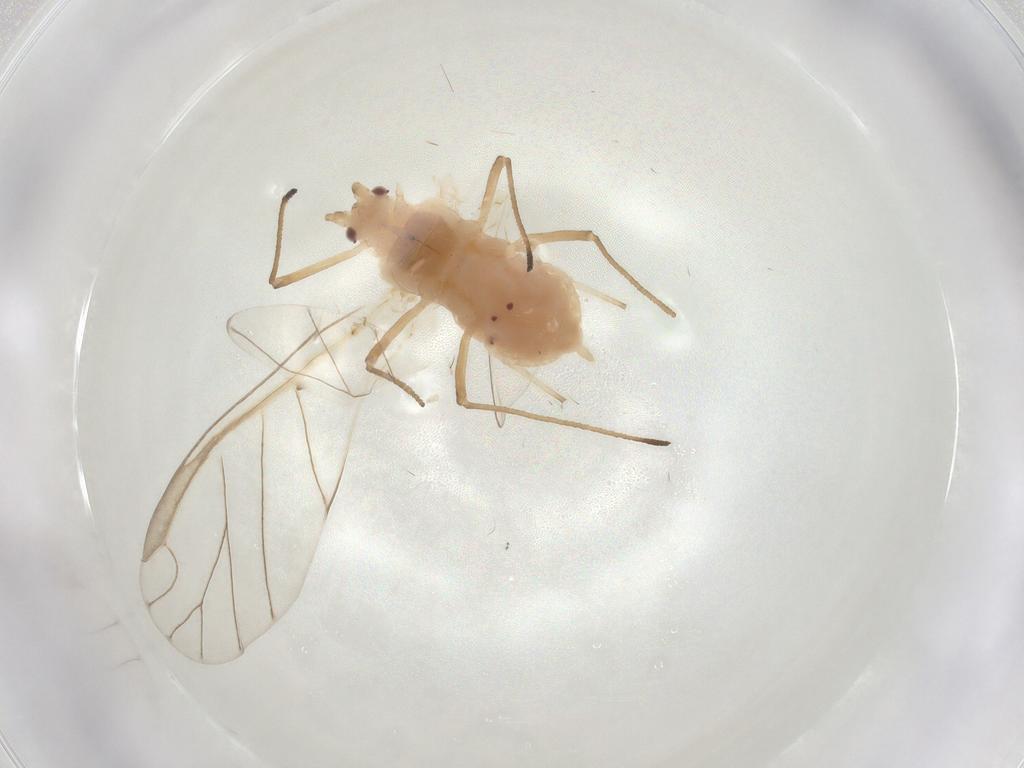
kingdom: Animalia
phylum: Arthropoda
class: Insecta
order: Hemiptera
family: Aphididae
